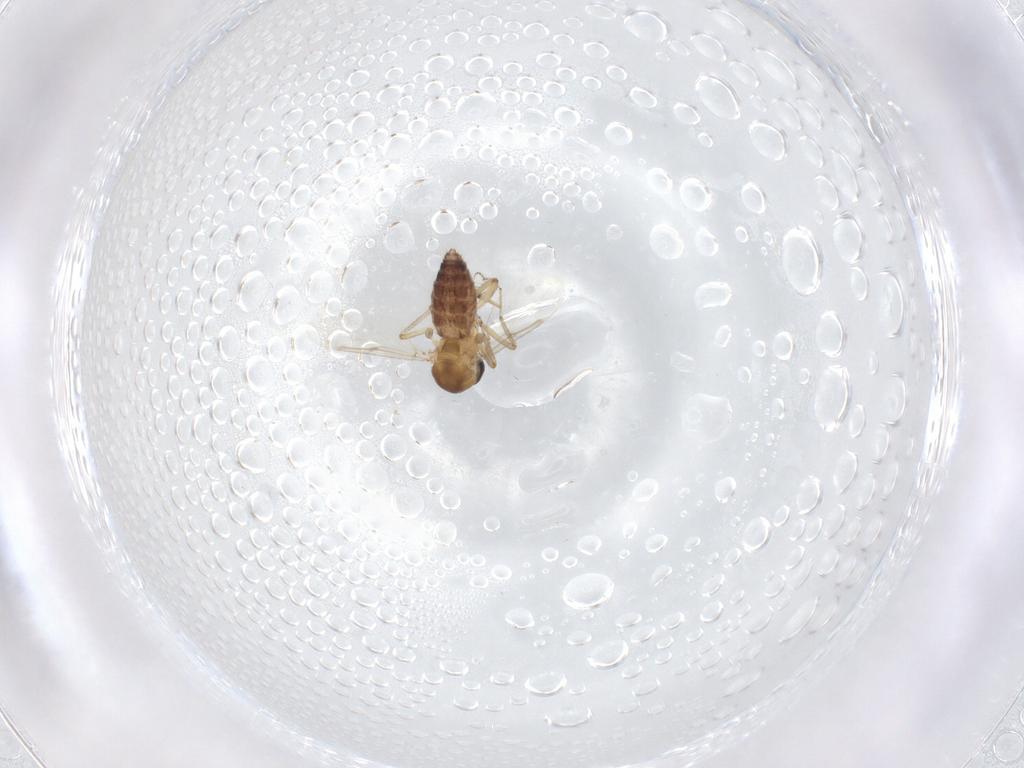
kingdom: Animalia
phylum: Arthropoda
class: Insecta
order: Diptera
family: Ceratopogonidae
